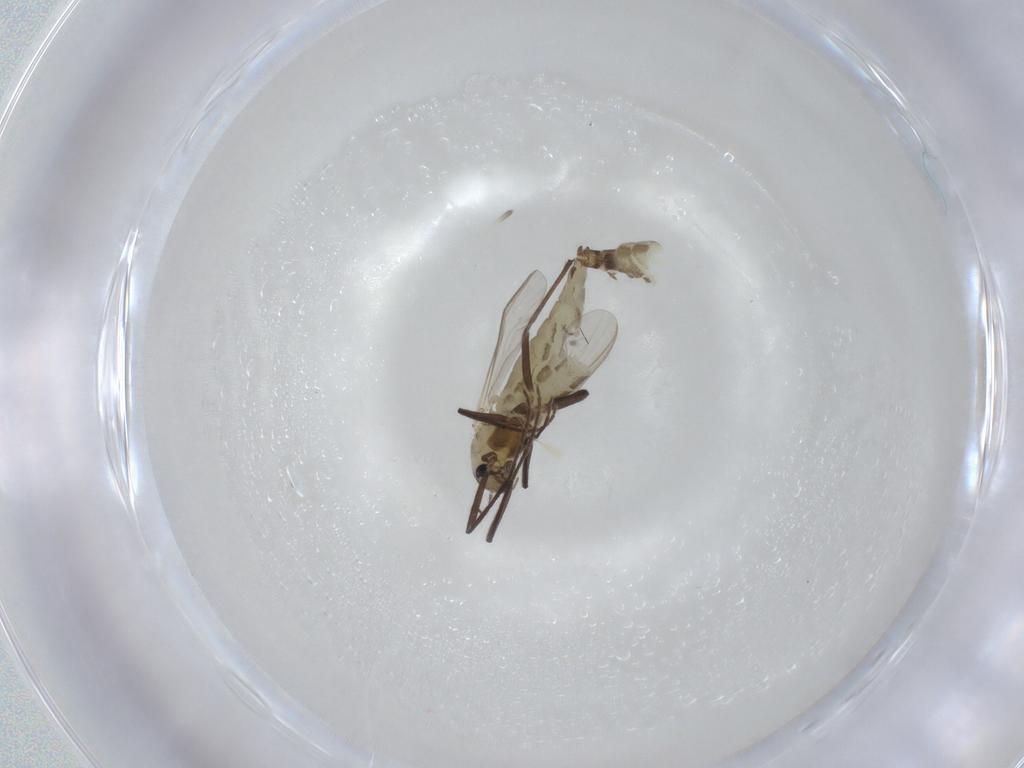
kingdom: Animalia
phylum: Arthropoda
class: Insecta
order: Diptera
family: Chironomidae
